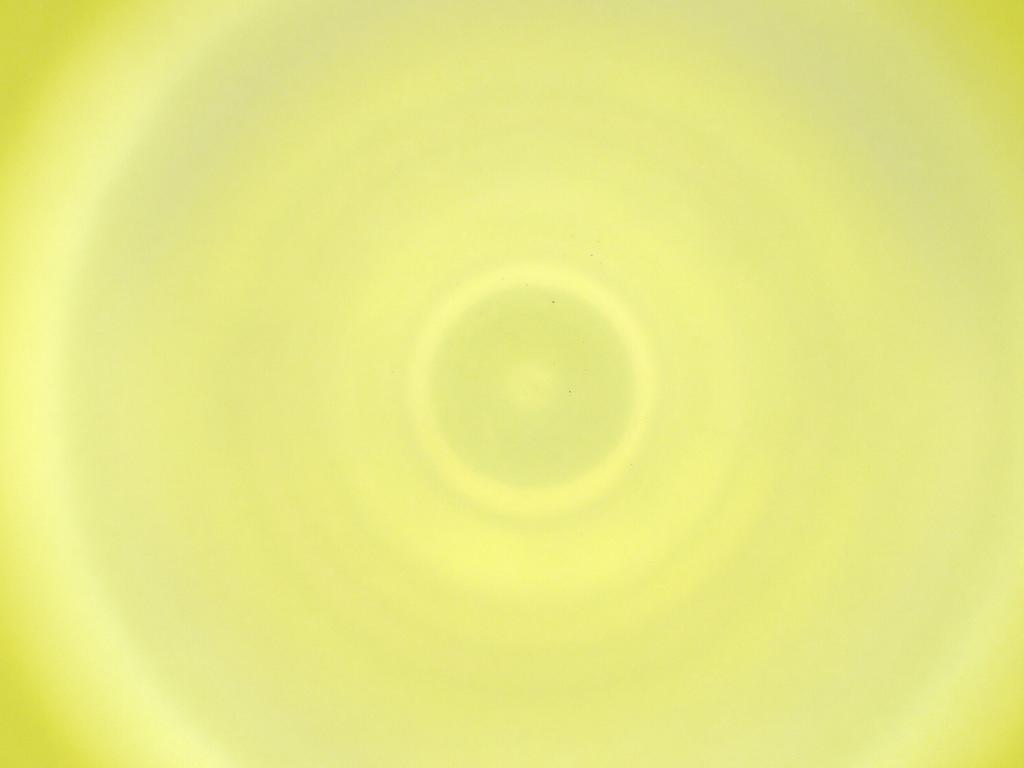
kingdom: Animalia
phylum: Arthropoda
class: Insecta
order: Diptera
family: Cecidomyiidae
